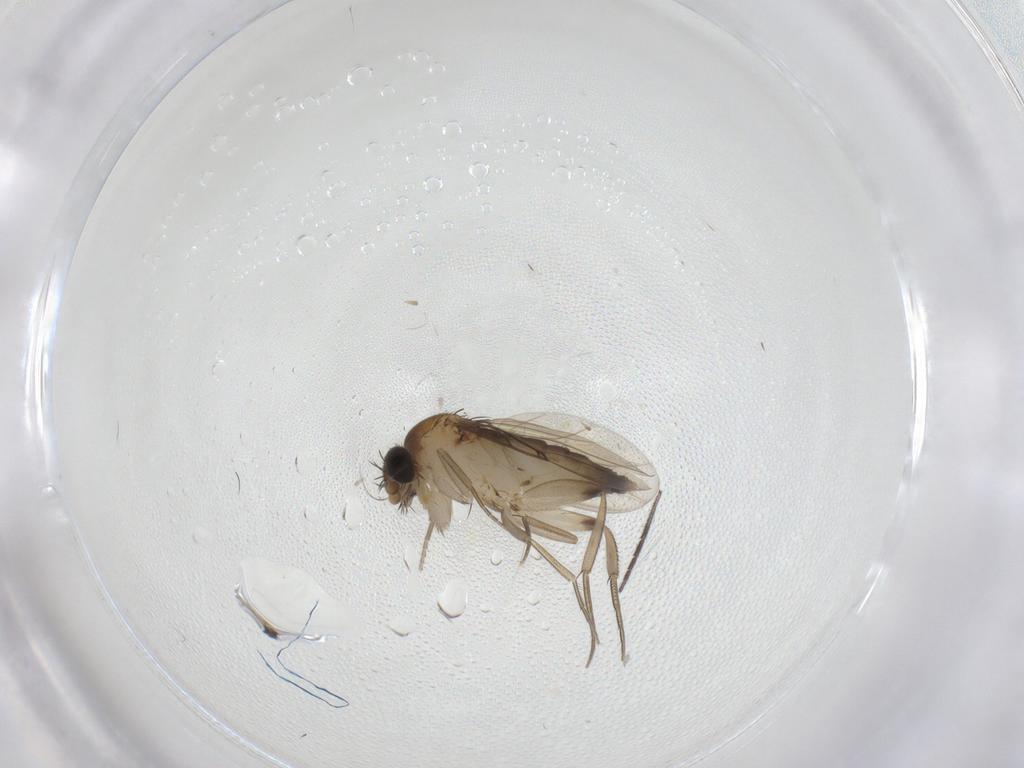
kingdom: Animalia
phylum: Arthropoda
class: Insecta
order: Diptera
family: Phoridae
